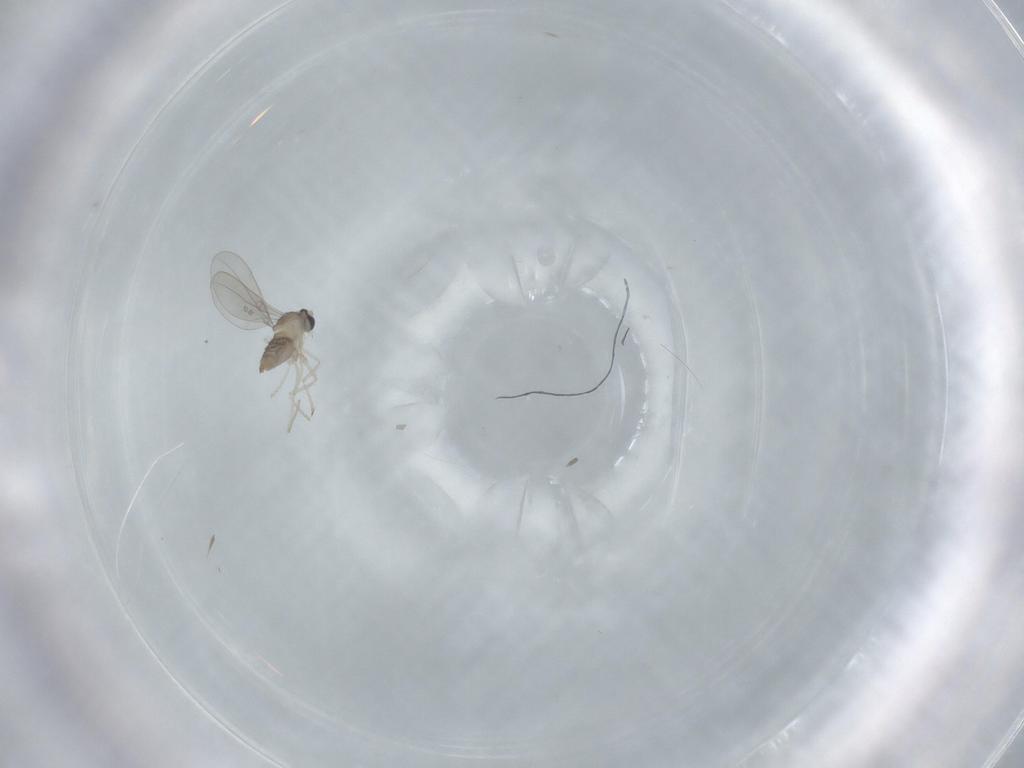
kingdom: Animalia
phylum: Arthropoda
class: Insecta
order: Diptera
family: Cecidomyiidae
